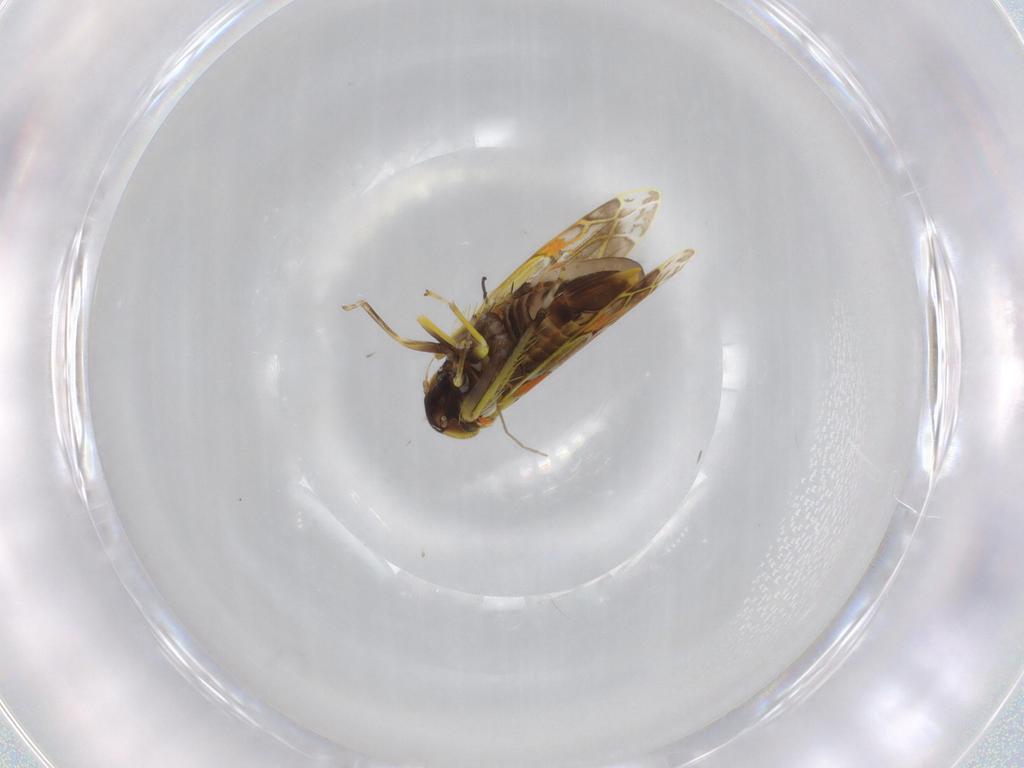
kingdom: Animalia
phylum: Arthropoda
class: Insecta
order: Hemiptera
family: Cicadellidae
